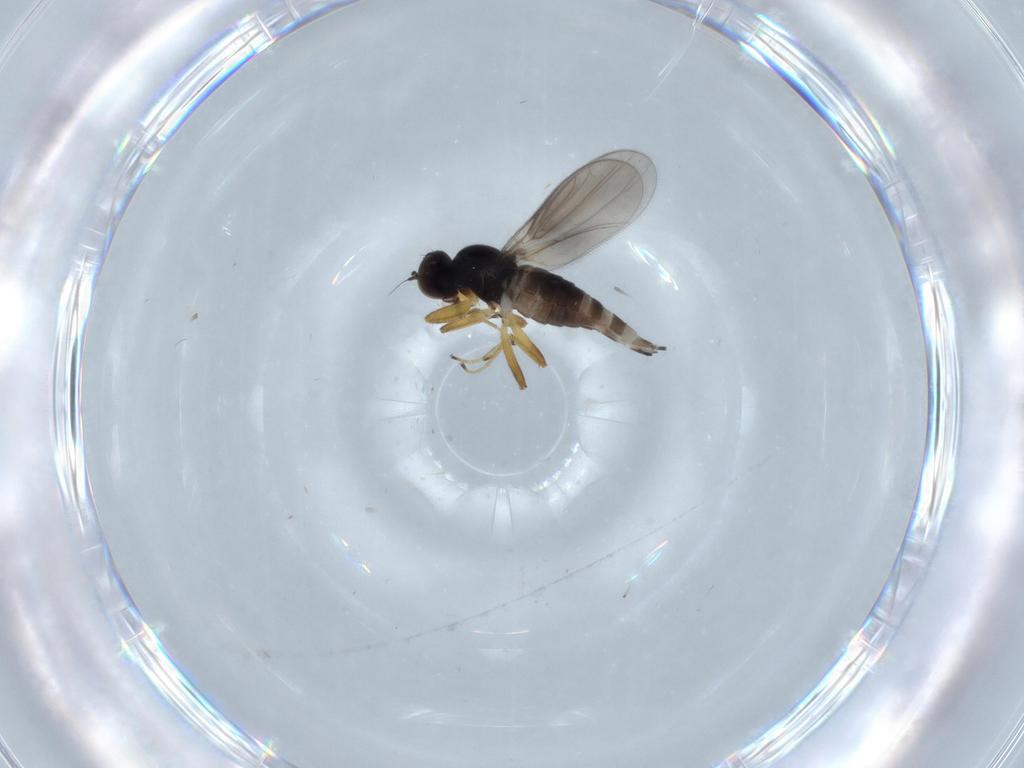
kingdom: Animalia
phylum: Arthropoda
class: Insecta
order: Diptera
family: Hybotidae
